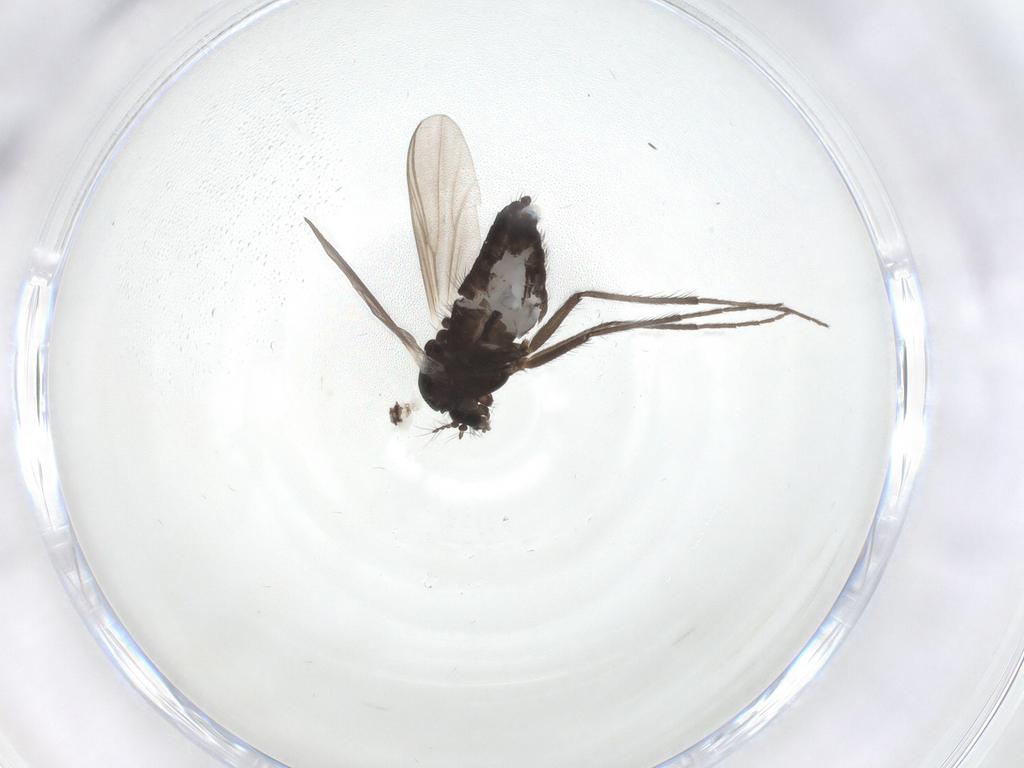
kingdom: Animalia
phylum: Arthropoda
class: Insecta
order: Diptera
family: Chironomidae
